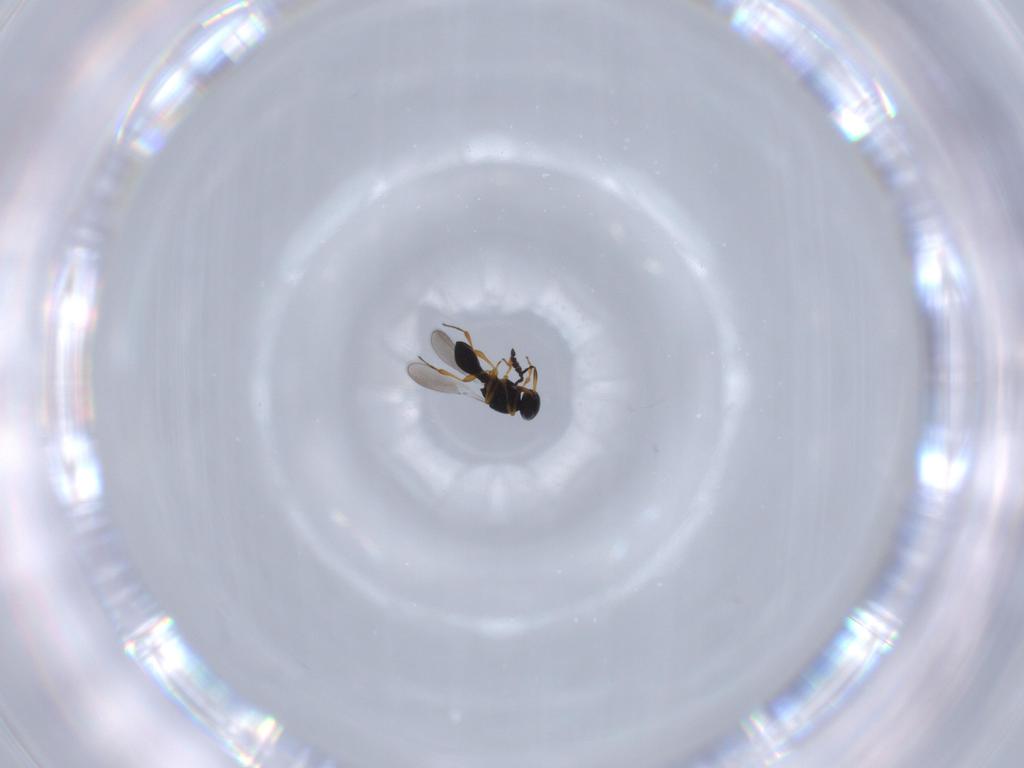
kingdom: Animalia
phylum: Arthropoda
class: Insecta
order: Hymenoptera
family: Platygastridae
